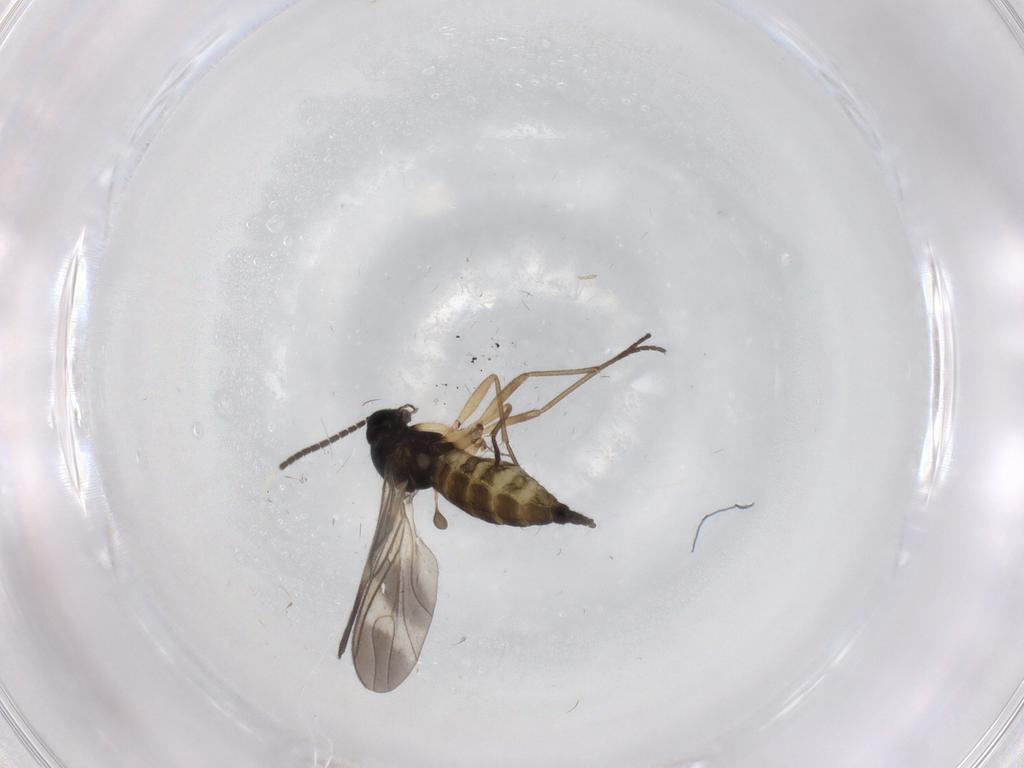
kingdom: Animalia
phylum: Arthropoda
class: Insecta
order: Diptera
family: Sciaridae
